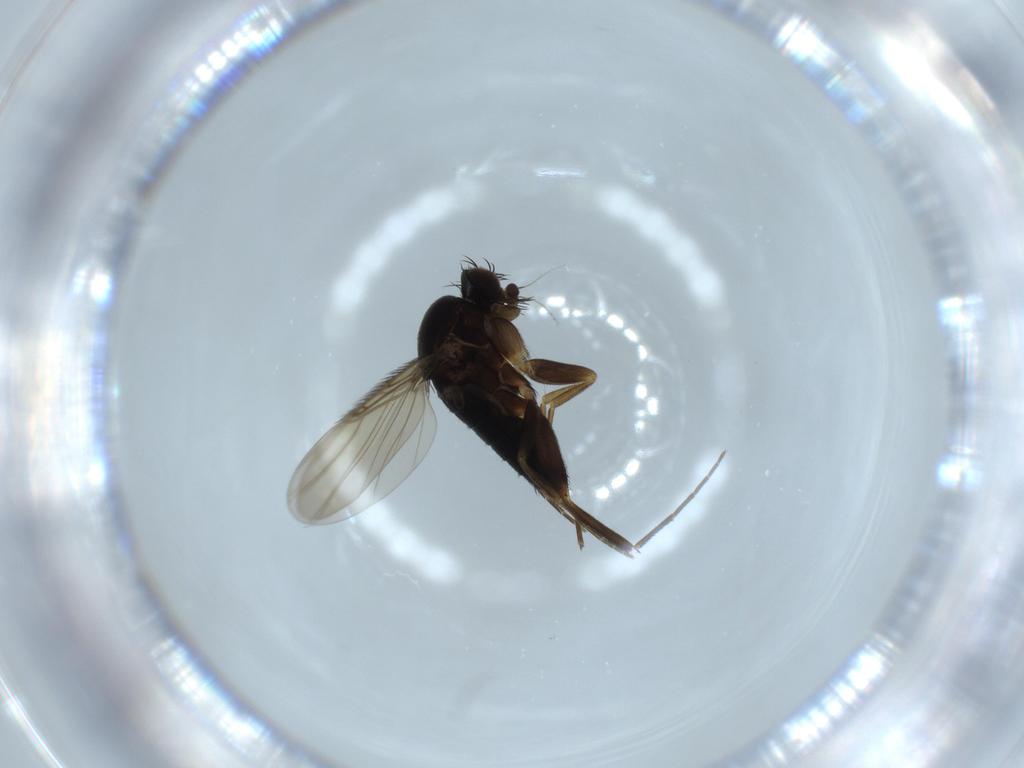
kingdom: Animalia
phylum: Arthropoda
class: Insecta
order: Diptera
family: Phoridae
